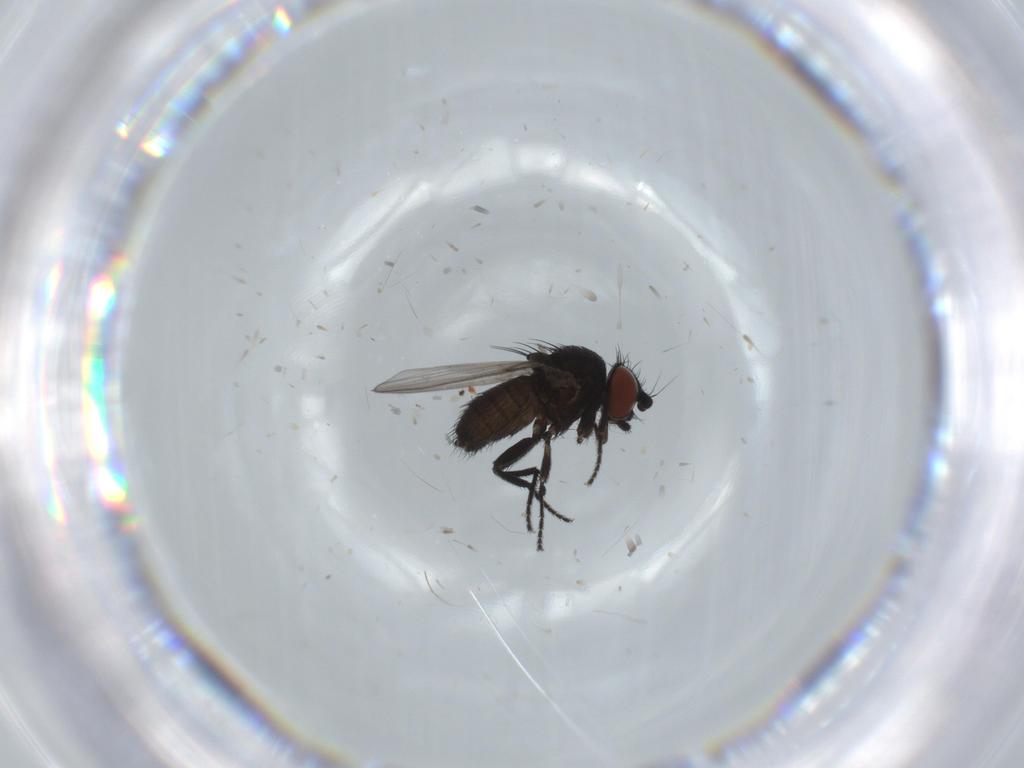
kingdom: Animalia
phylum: Arthropoda
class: Insecta
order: Diptera
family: Milichiidae
